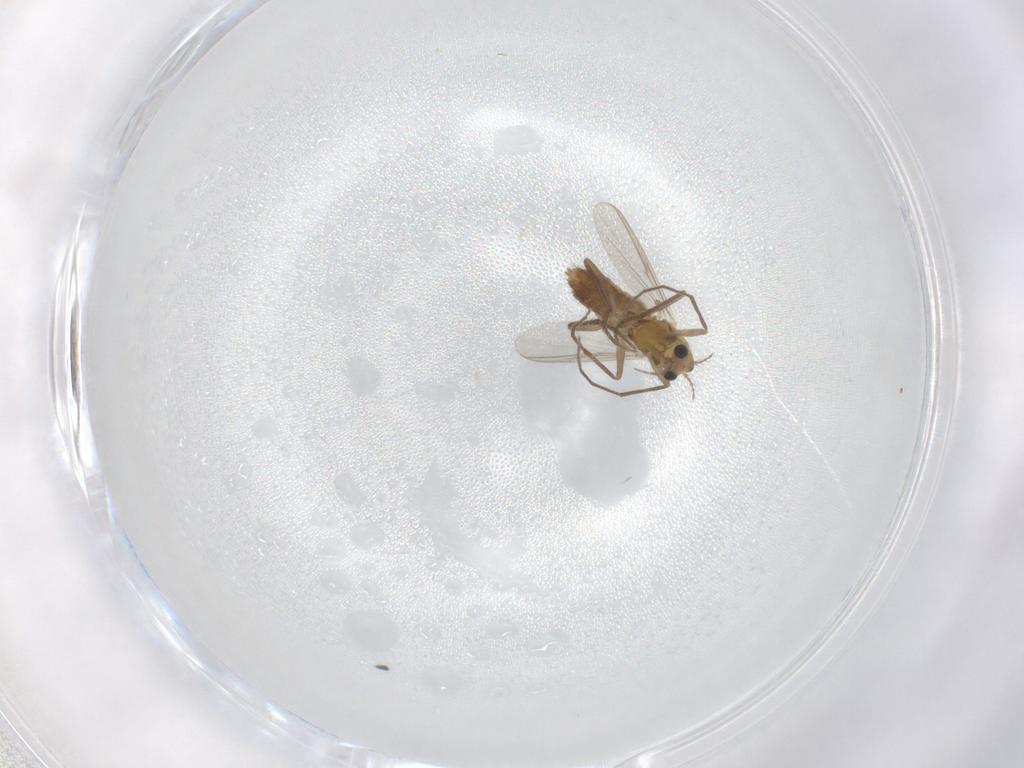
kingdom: Animalia
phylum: Arthropoda
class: Insecta
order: Diptera
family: Chironomidae
